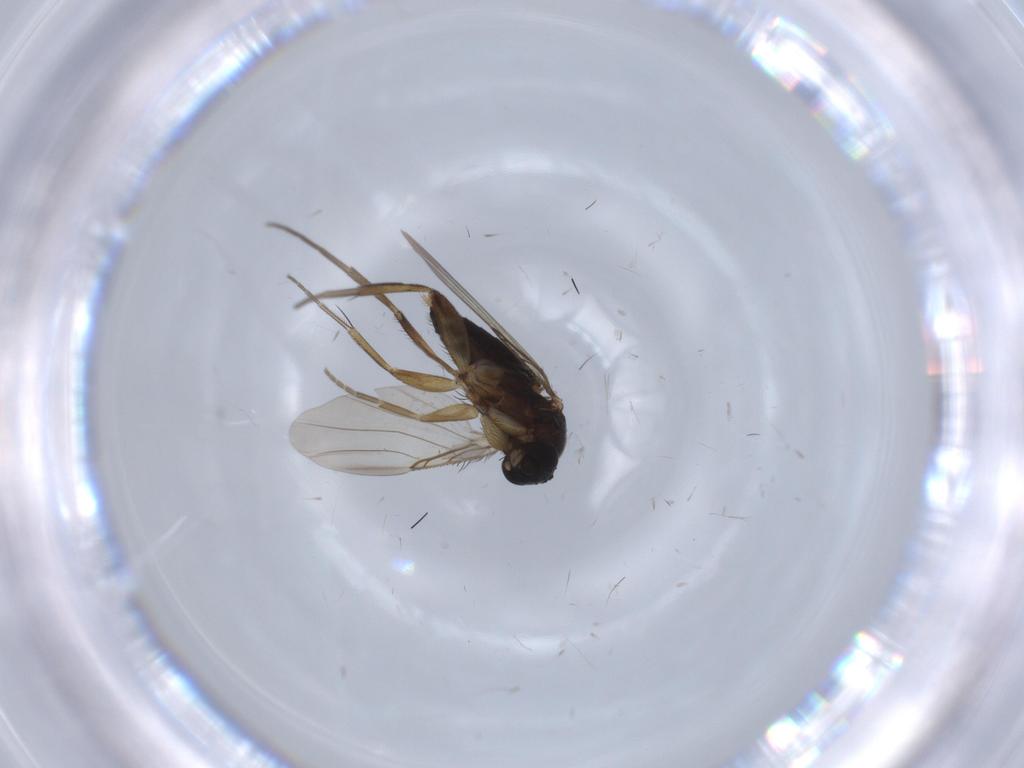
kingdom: Animalia
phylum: Arthropoda
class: Insecta
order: Diptera
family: Phoridae
